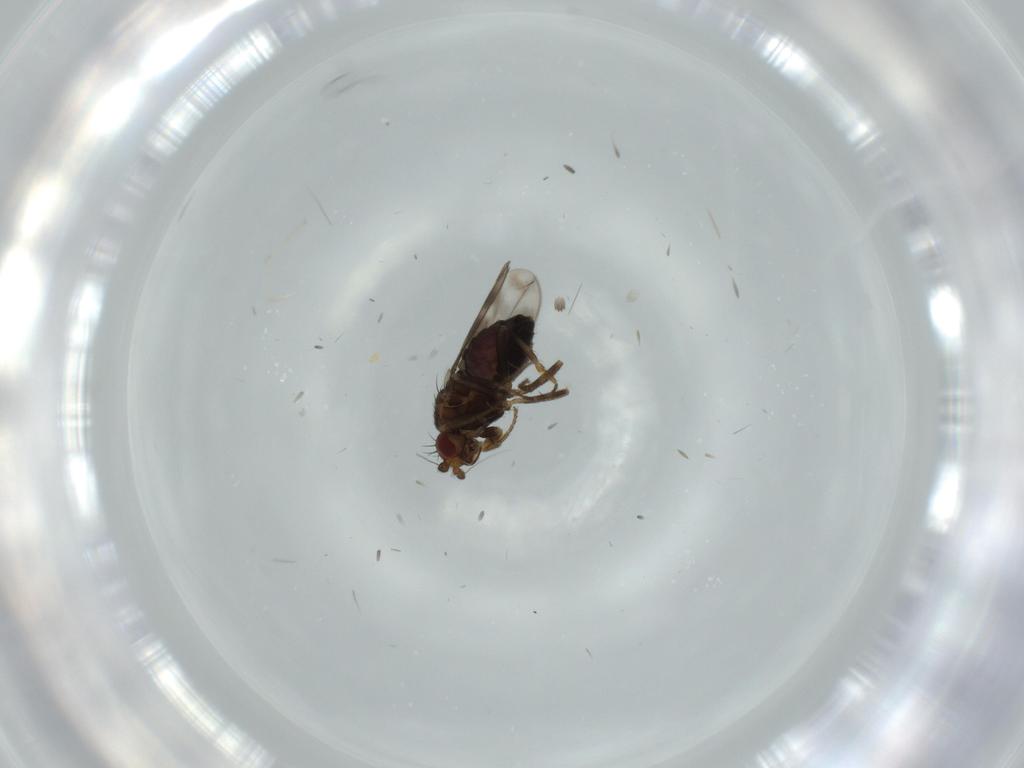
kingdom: Animalia
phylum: Arthropoda
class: Insecta
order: Diptera
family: Sphaeroceridae
